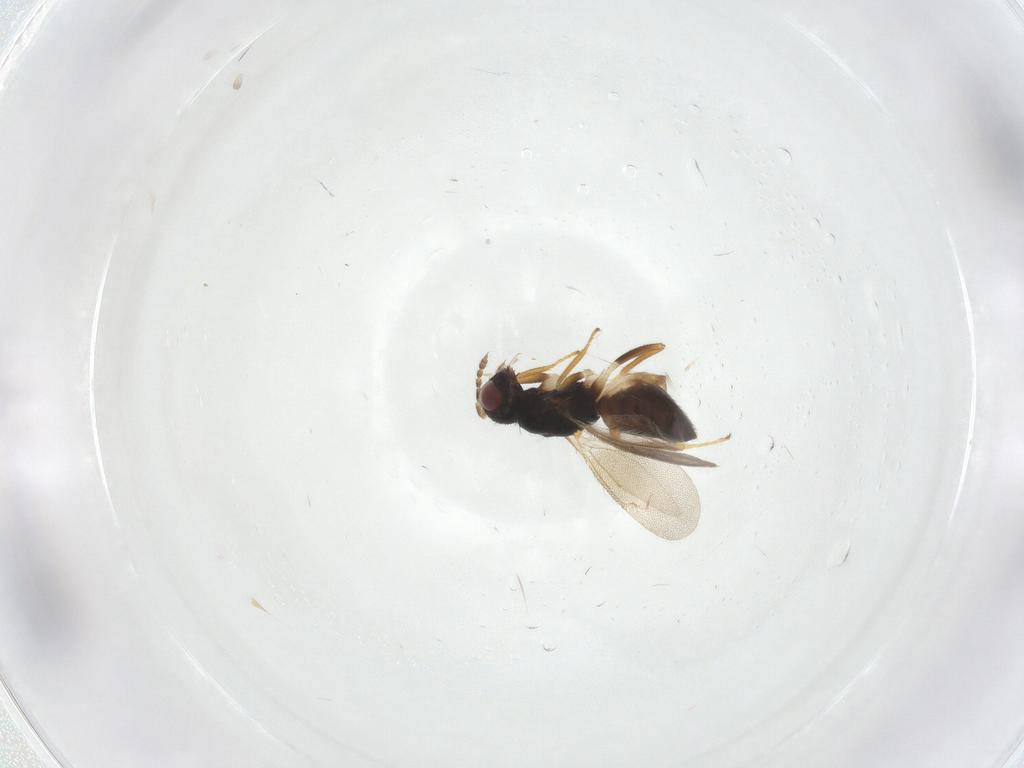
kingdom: Animalia
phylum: Arthropoda
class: Insecta
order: Hymenoptera
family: Eulophidae
